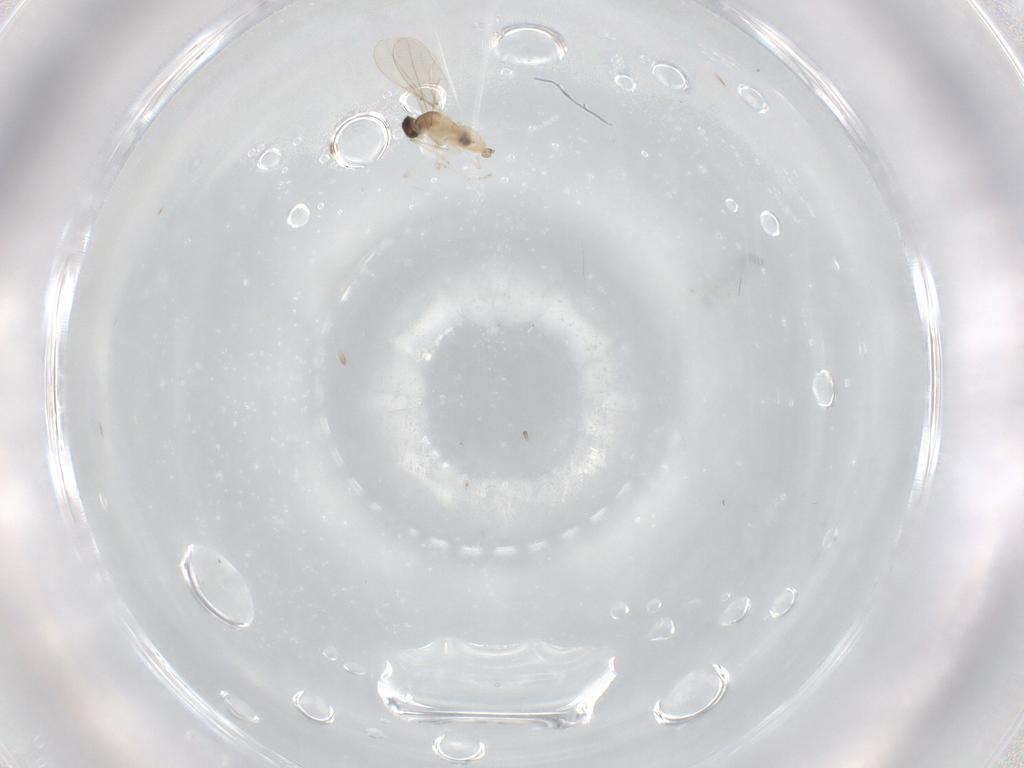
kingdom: Animalia
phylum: Arthropoda
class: Insecta
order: Diptera
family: Cecidomyiidae
